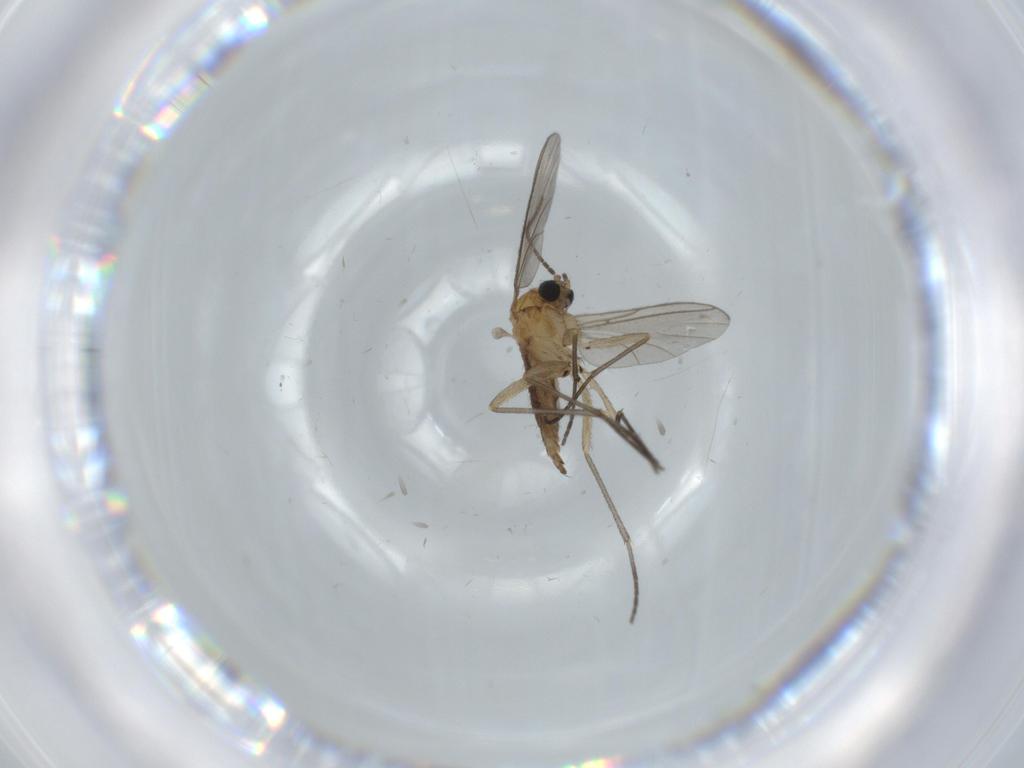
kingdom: Animalia
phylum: Arthropoda
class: Insecta
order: Diptera
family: Sciaridae
